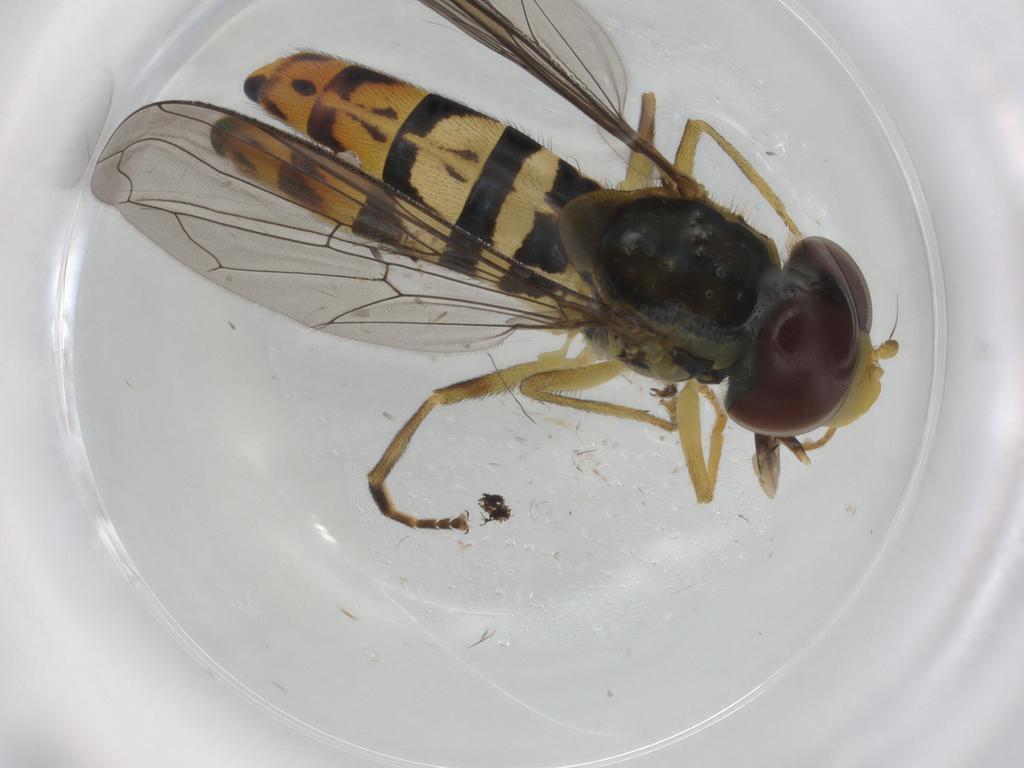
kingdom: Animalia
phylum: Arthropoda
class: Insecta
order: Diptera
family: Syrphidae
